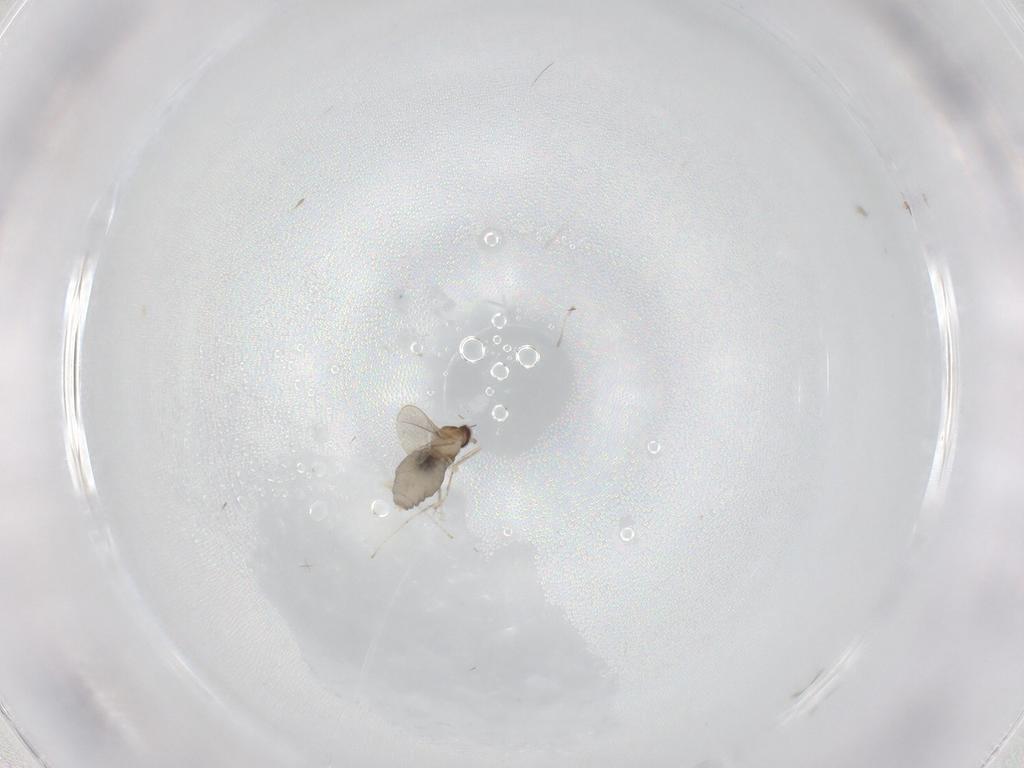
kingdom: Animalia
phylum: Arthropoda
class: Insecta
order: Diptera
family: Cecidomyiidae
